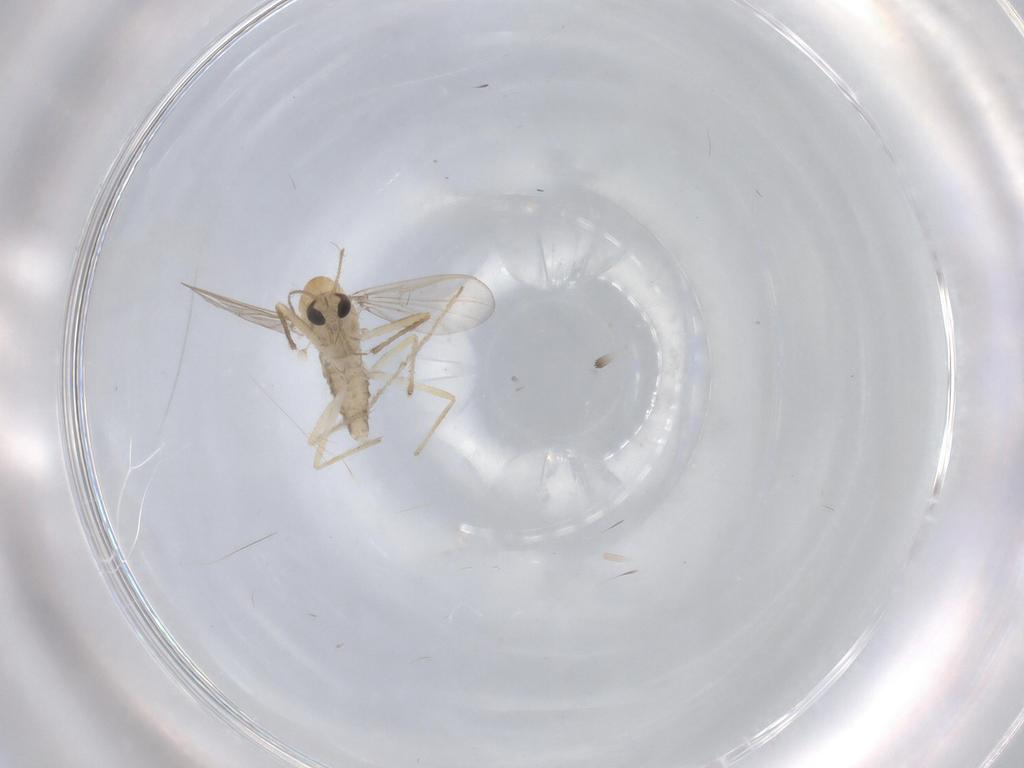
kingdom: Animalia
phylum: Arthropoda
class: Insecta
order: Diptera
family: Chironomidae
